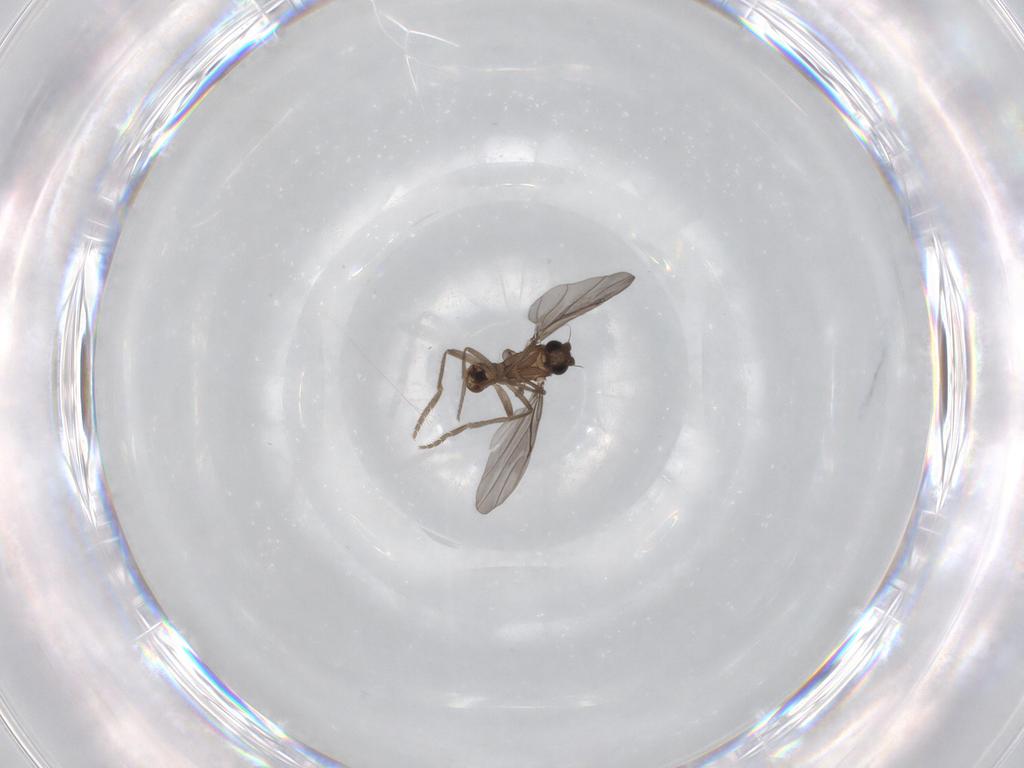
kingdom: Animalia
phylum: Arthropoda
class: Insecta
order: Diptera
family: Phoridae
